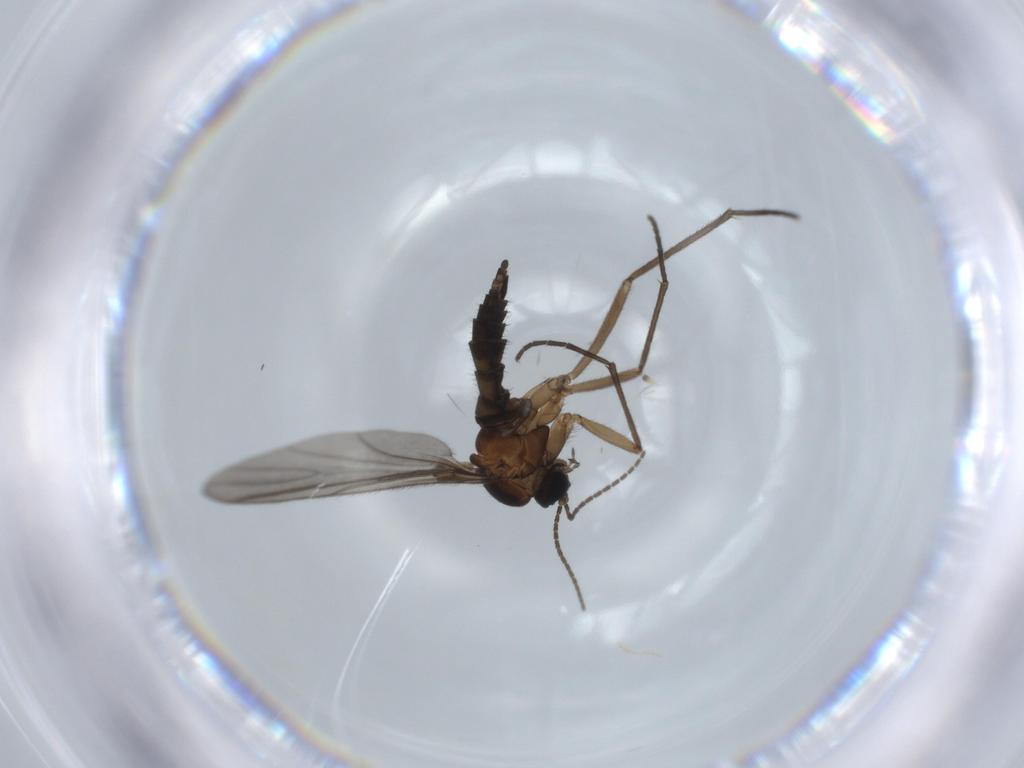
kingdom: Animalia
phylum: Arthropoda
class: Insecta
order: Diptera
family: Sciaridae
